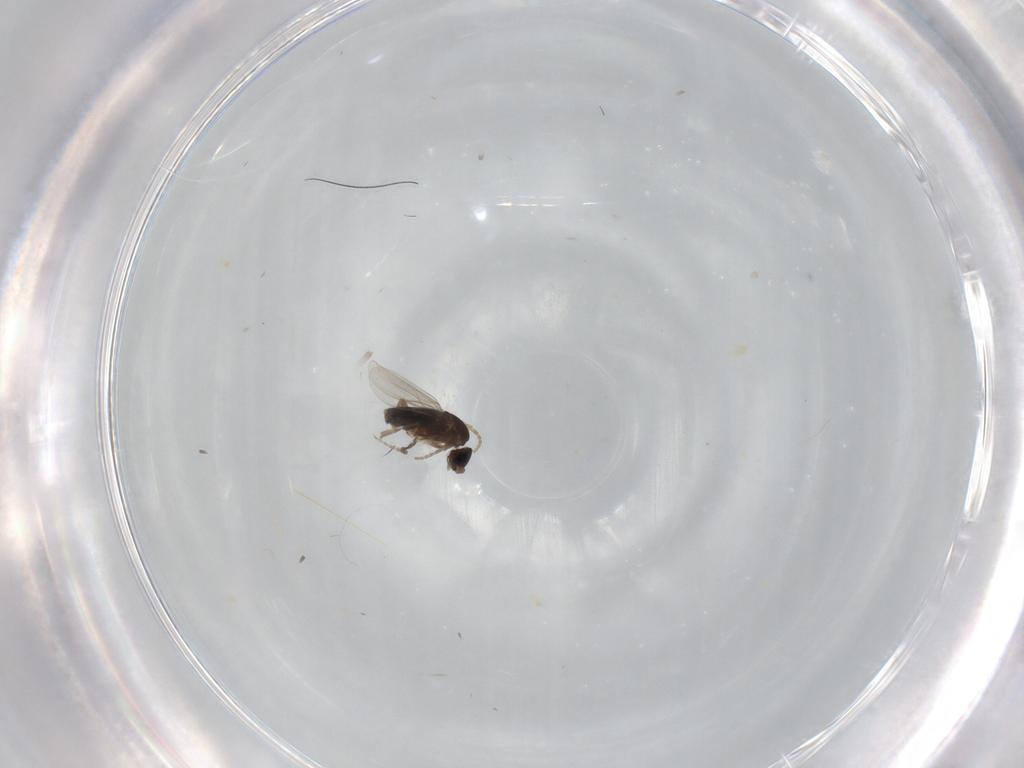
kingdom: Animalia
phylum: Arthropoda
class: Insecta
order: Diptera
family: Phoridae
